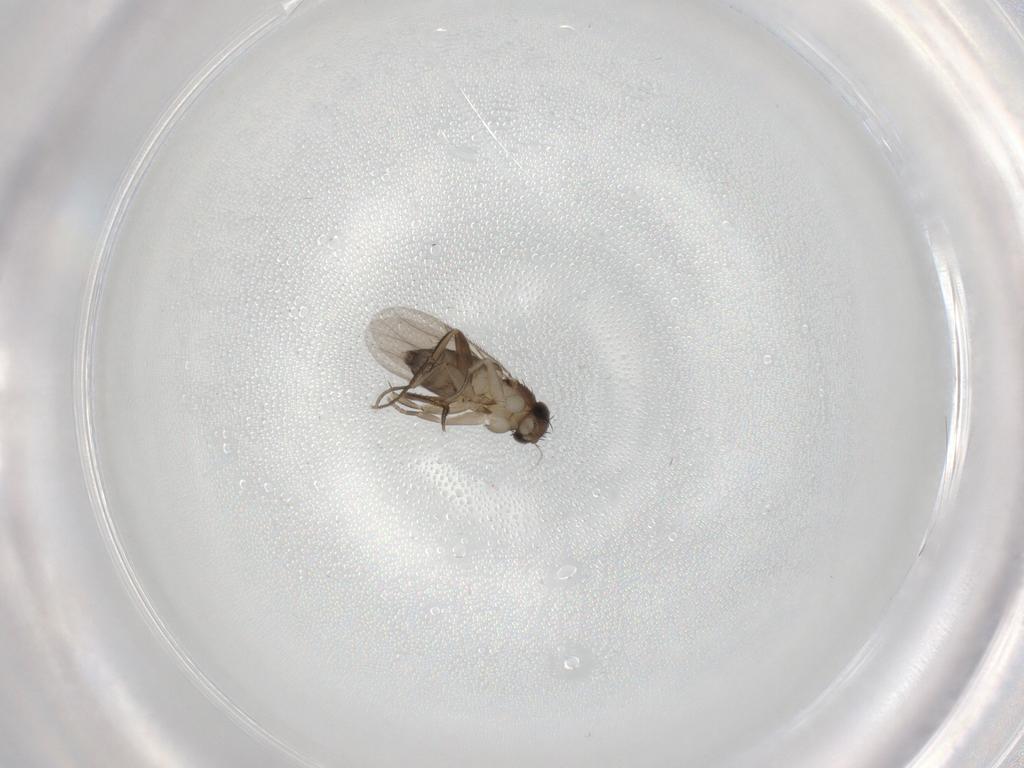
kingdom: Animalia
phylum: Arthropoda
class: Insecta
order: Diptera
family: Phoridae
